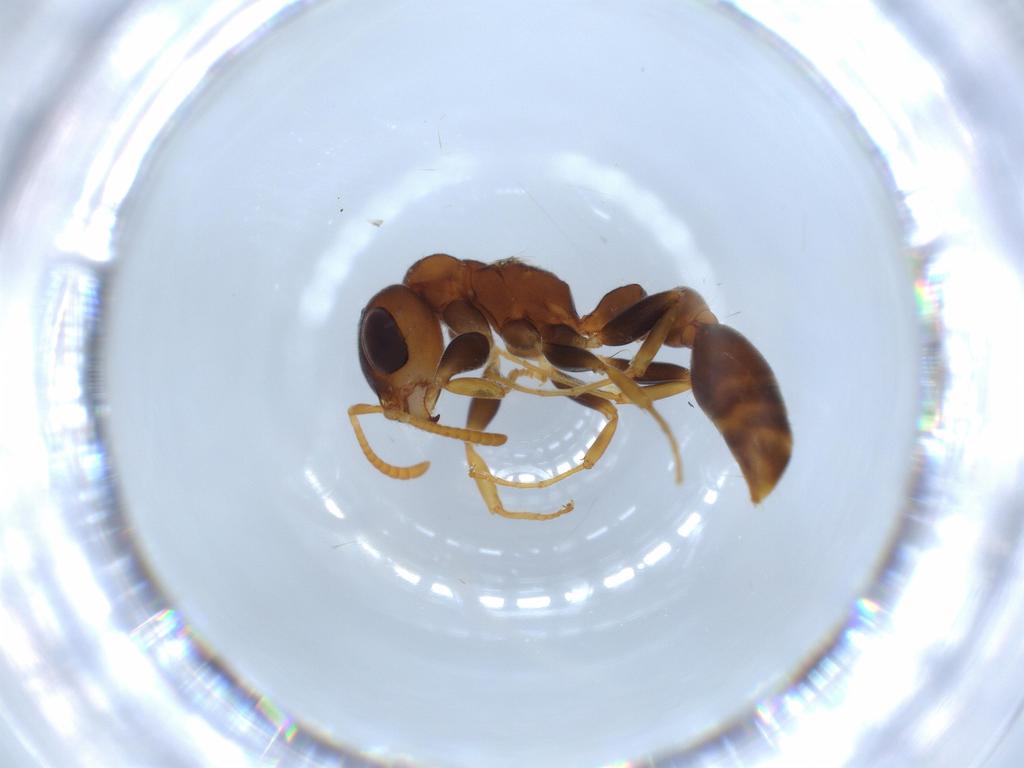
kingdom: Animalia
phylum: Arthropoda
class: Insecta
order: Hymenoptera
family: Formicidae
